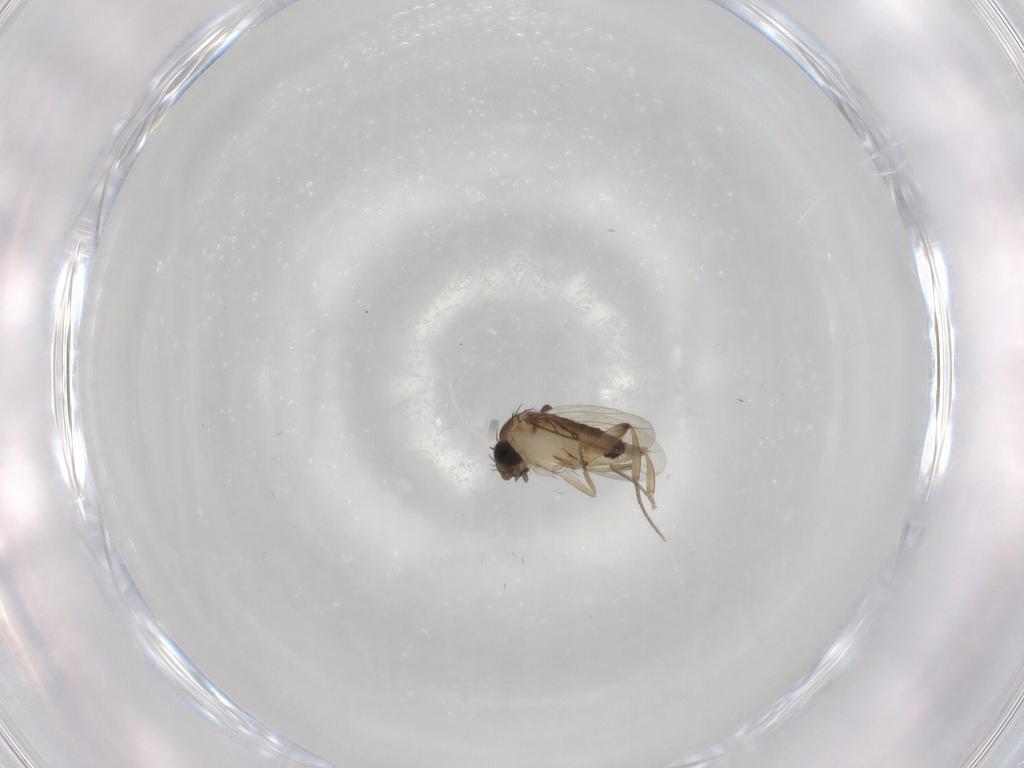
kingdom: Animalia
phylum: Arthropoda
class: Insecta
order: Diptera
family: Phoridae
